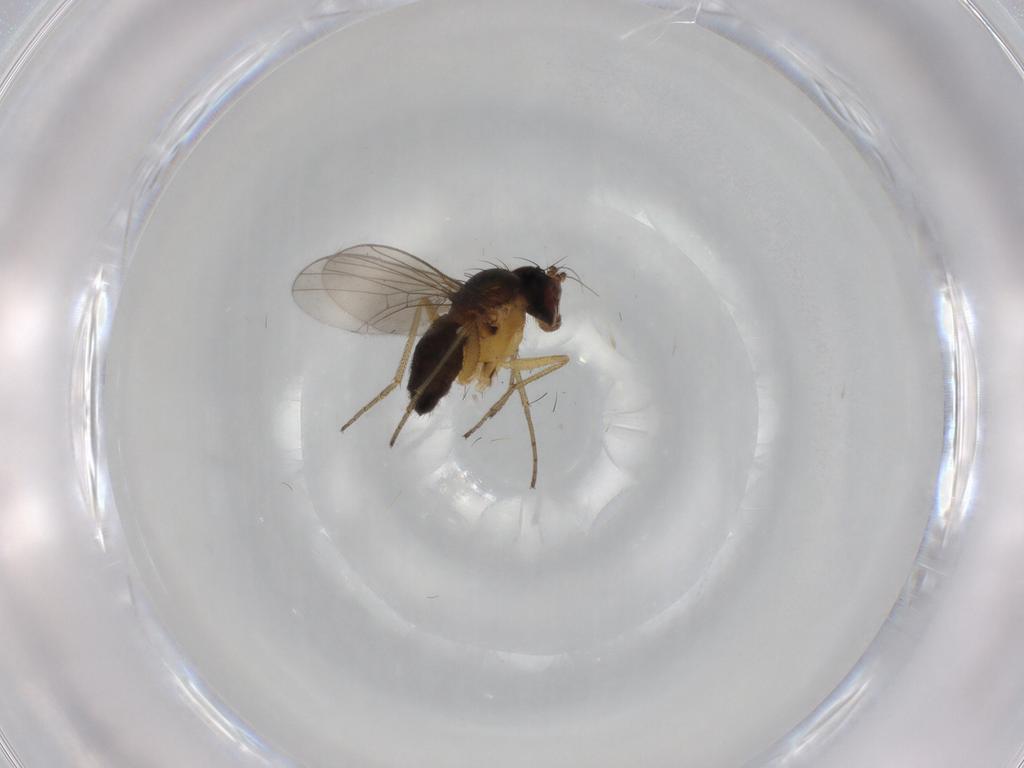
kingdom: Animalia
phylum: Arthropoda
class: Insecta
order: Diptera
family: Dolichopodidae
